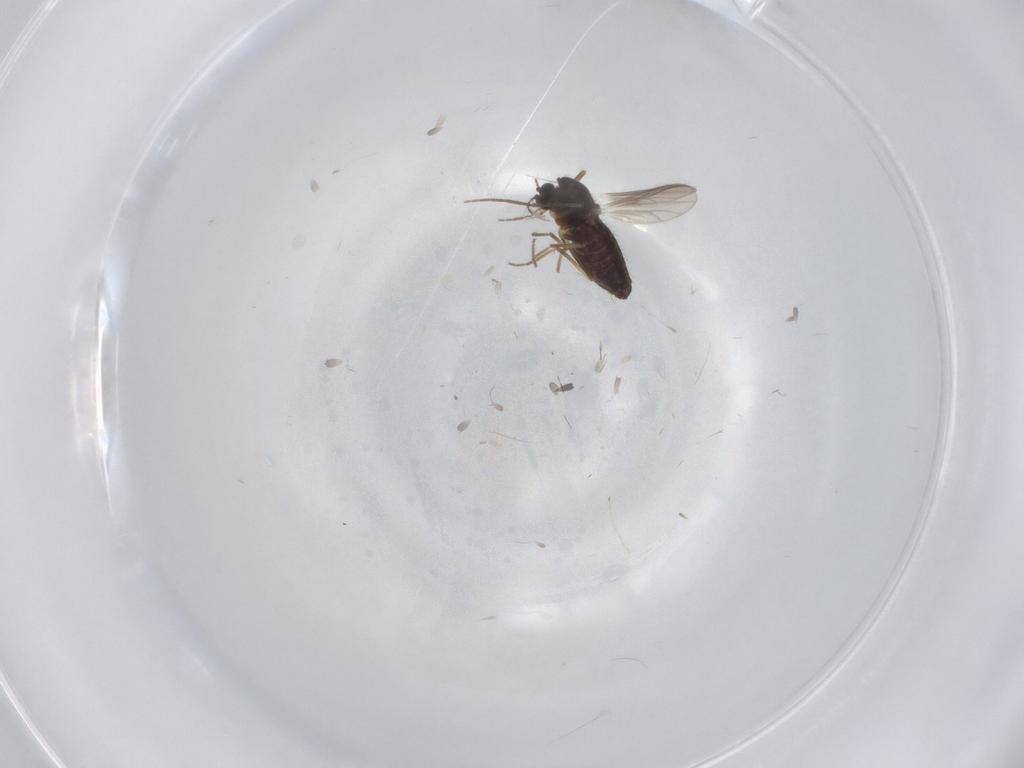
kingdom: Animalia
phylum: Arthropoda
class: Insecta
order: Diptera
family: Chironomidae
